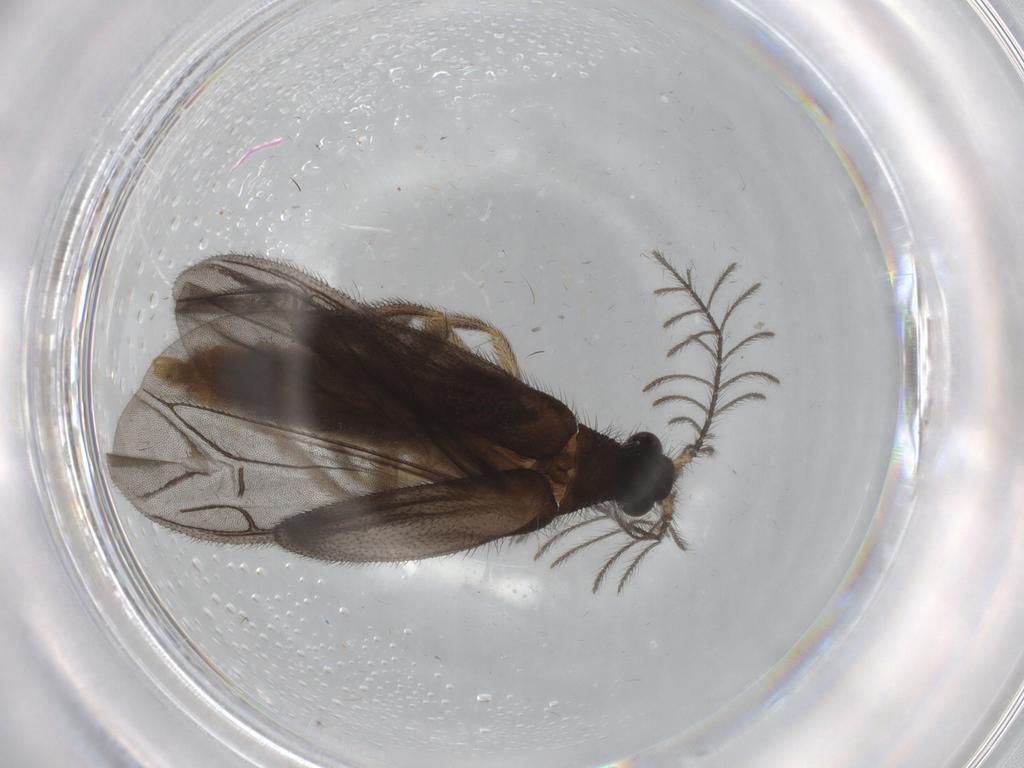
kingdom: Animalia
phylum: Arthropoda
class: Insecta
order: Coleoptera
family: Phengodidae
